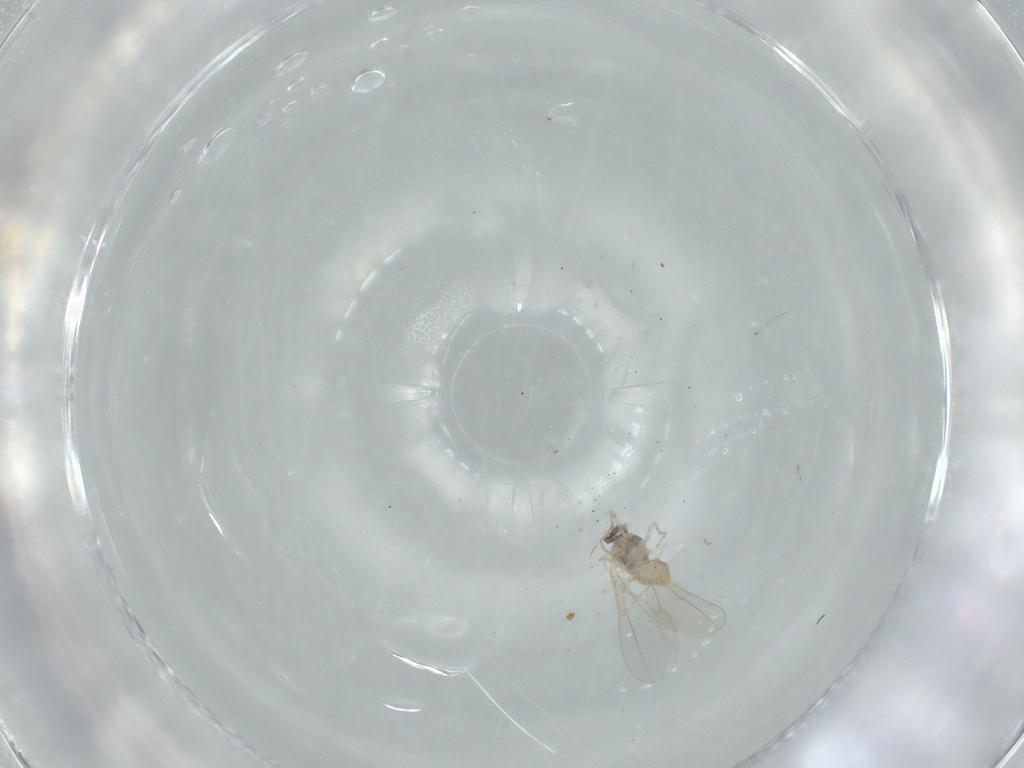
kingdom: Animalia
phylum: Arthropoda
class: Insecta
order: Diptera
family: Cecidomyiidae
